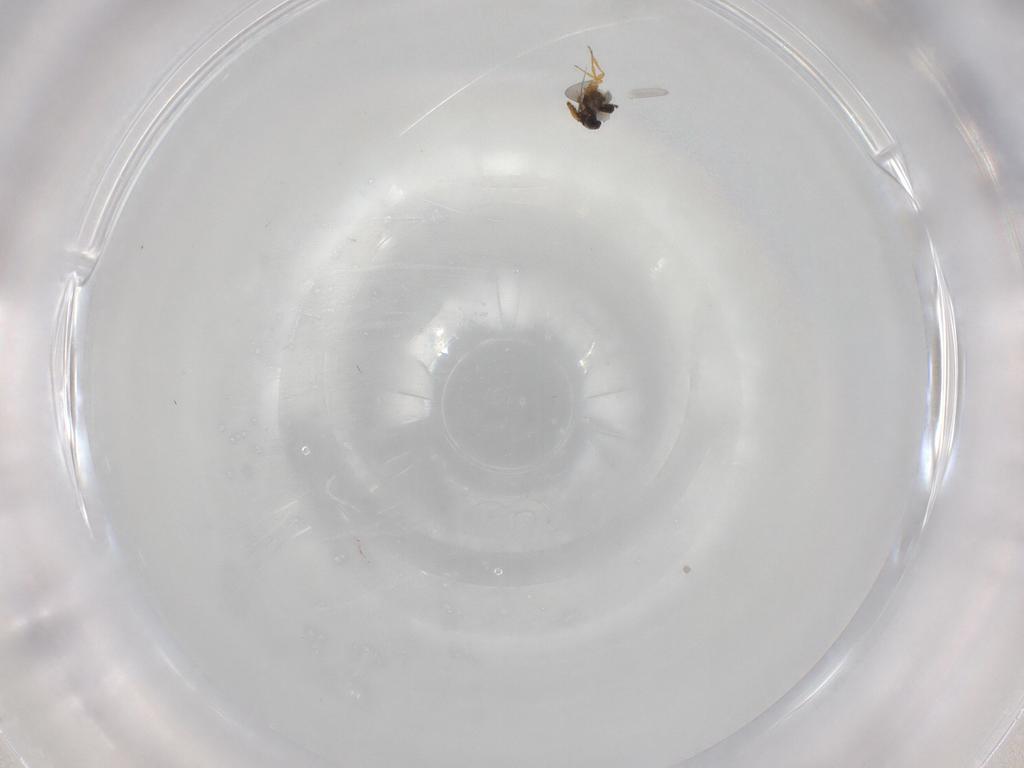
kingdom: Animalia
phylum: Arthropoda
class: Insecta
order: Hymenoptera
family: Platygastridae
